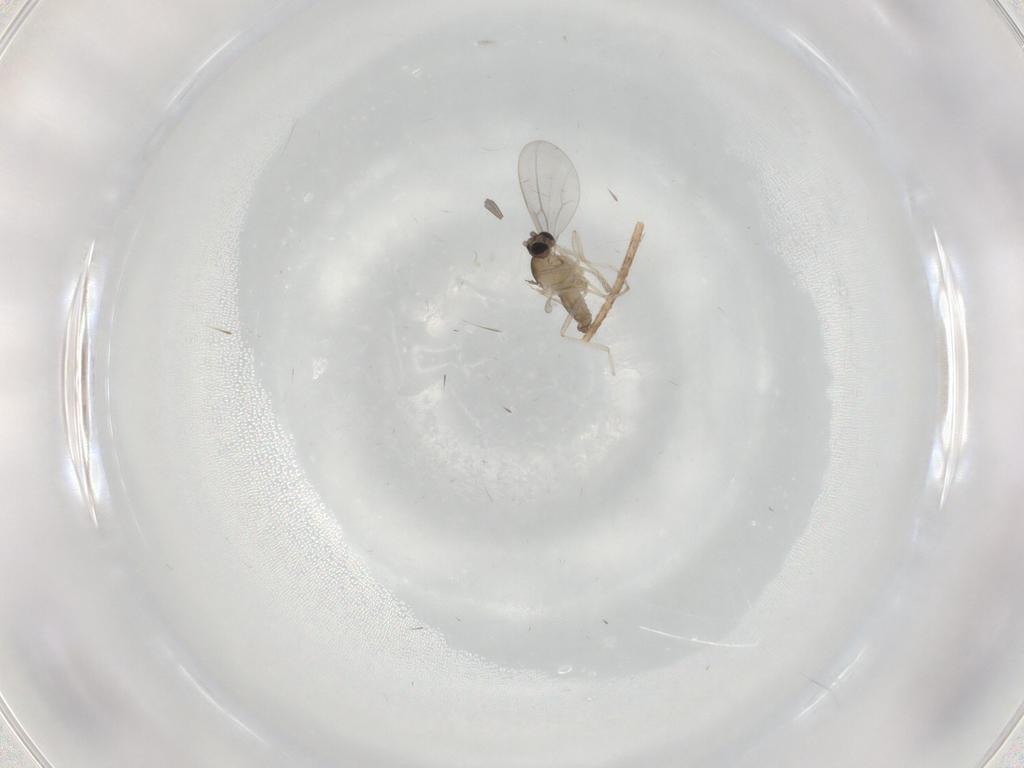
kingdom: Animalia
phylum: Arthropoda
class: Insecta
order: Diptera
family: Cecidomyiidae
